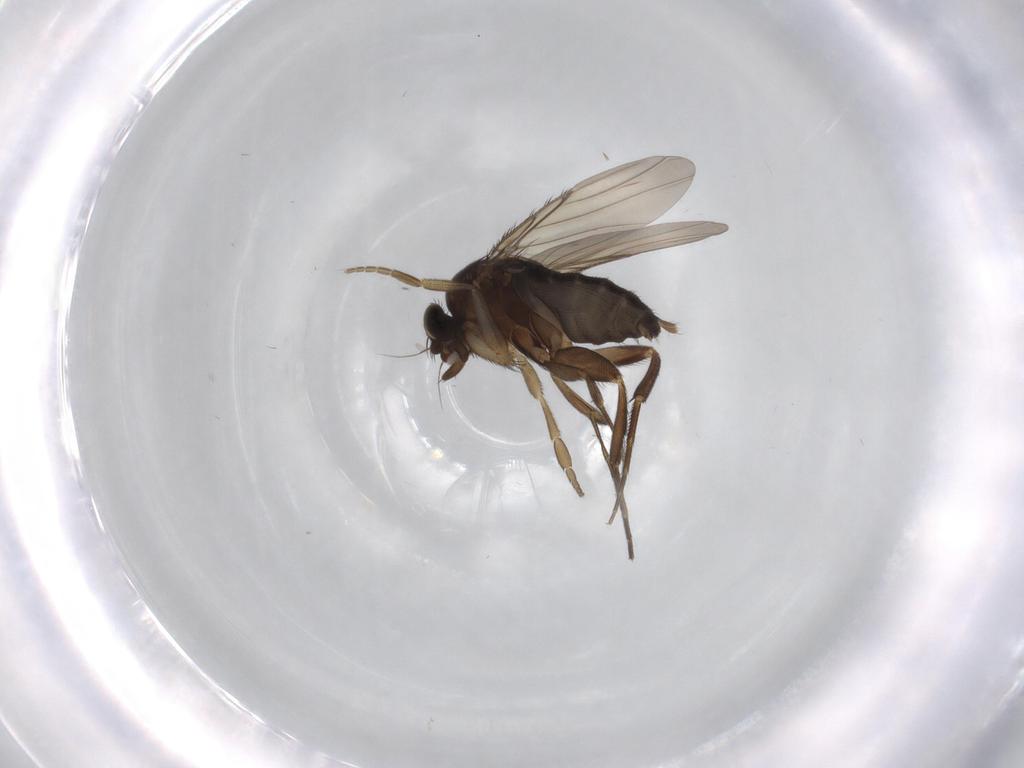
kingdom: Animalia
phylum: Arthropoda
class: Insecta
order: Diptera
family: Phoridae
